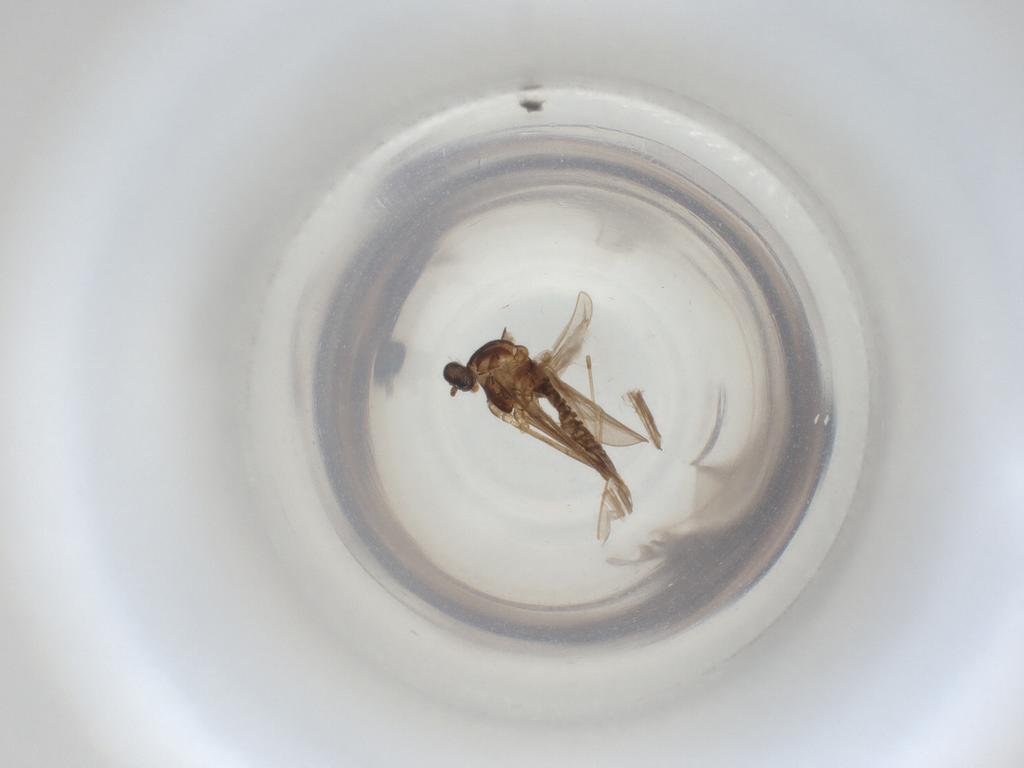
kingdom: Animalia
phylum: Arthropoda
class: Insecta
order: Diptera
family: Cecidomyiidae
